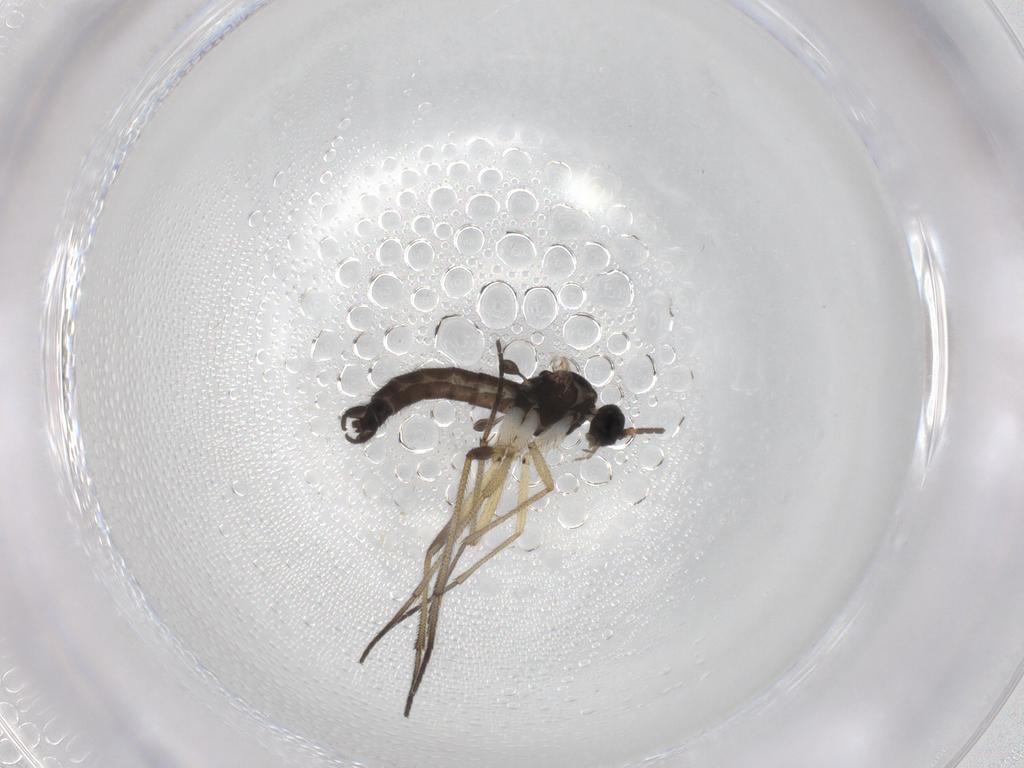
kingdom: Animalia
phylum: Arthropoda
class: Insecta
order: Diptera
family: Sciaridae
